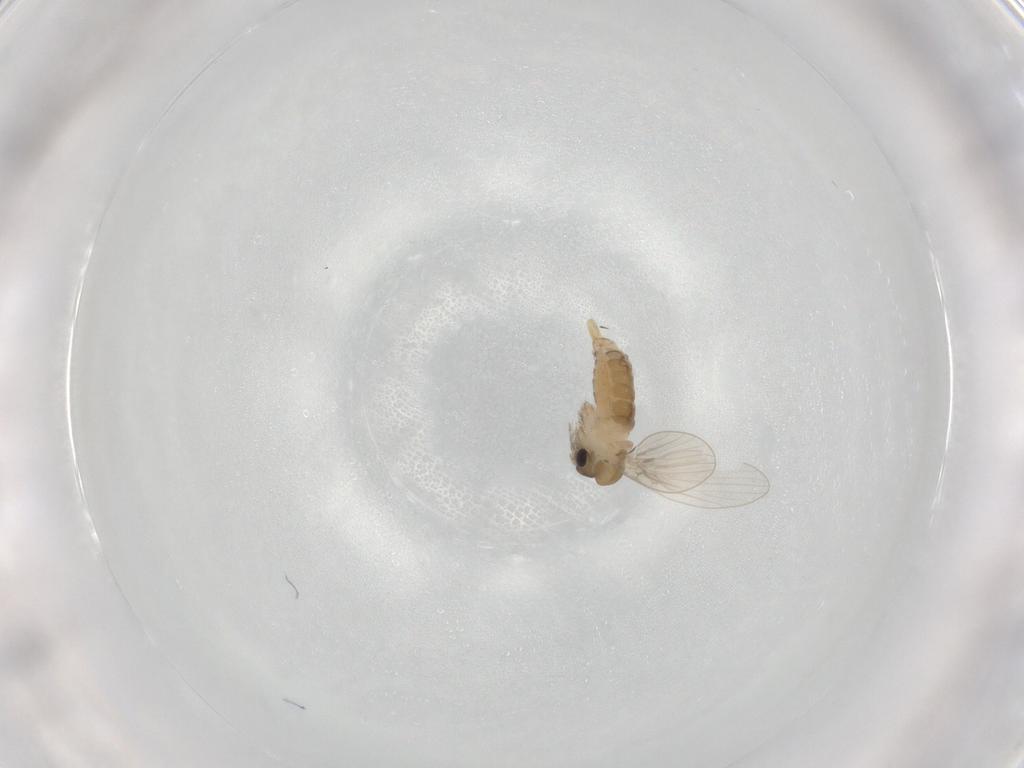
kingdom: Animalia
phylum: Arthropoda
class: Insecta
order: Diptera
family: Psychodidae
